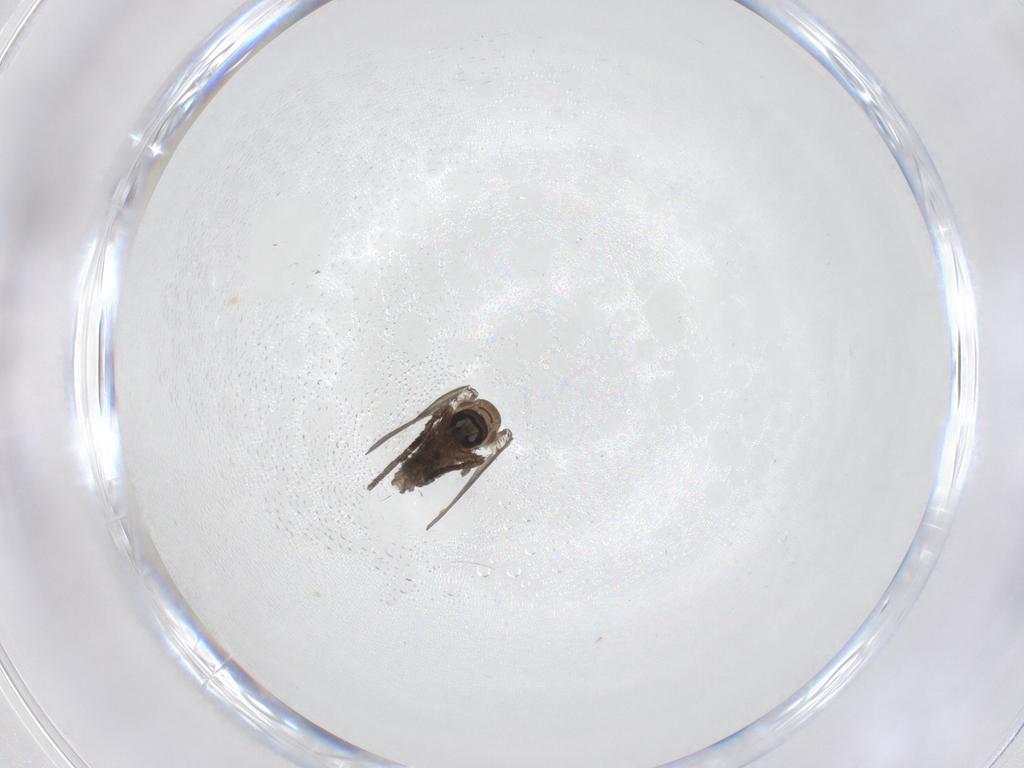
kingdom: Animalia
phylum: Arthropoda
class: Insecta
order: Diptera
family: Psychodidae
